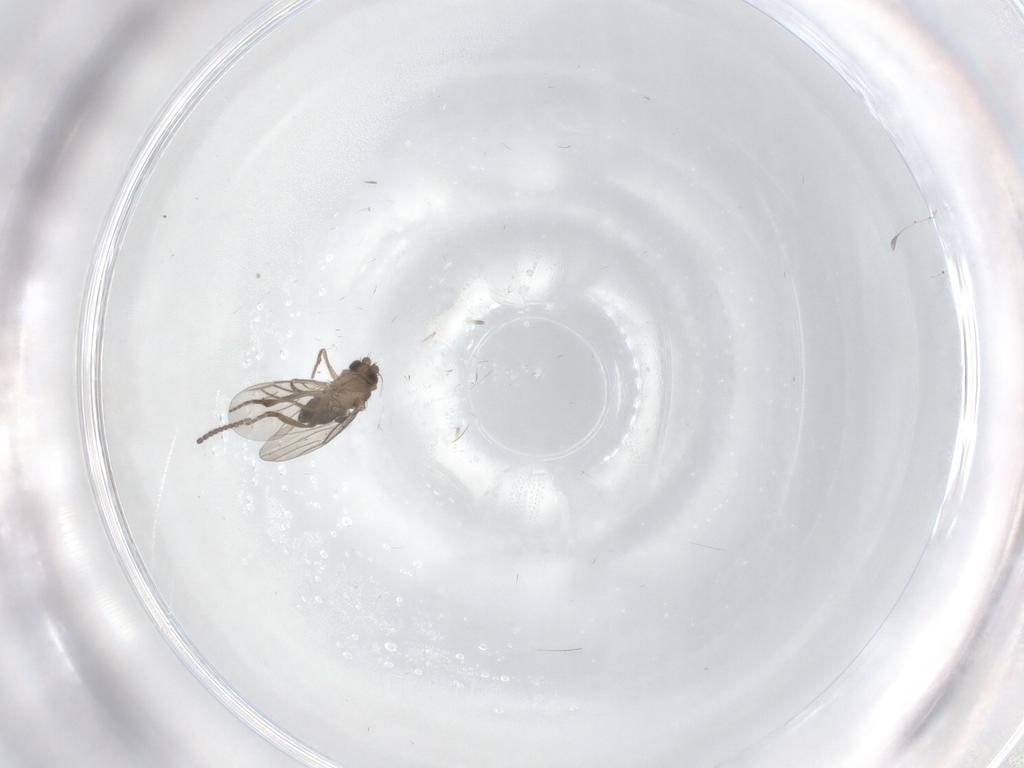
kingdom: Animalia
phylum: Arthropoda
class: Insecta
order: Diptera
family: Phoridae
